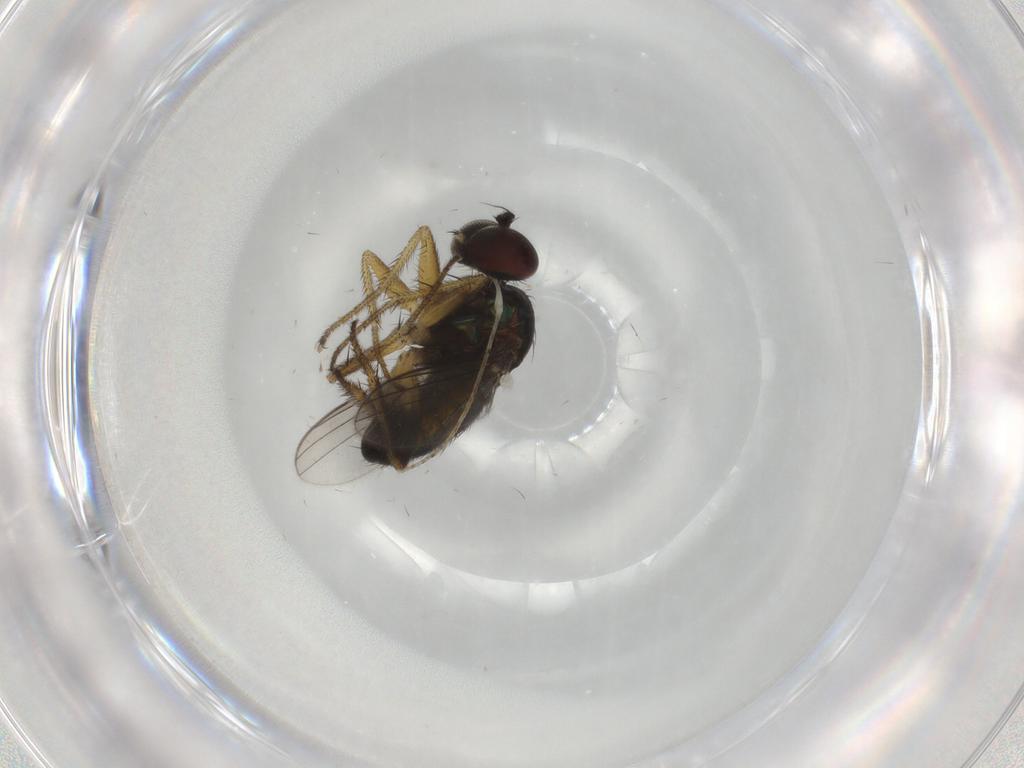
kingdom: Animalia
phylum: Arthropoda
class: Insecta
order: Diptera
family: Dolichopodidae
